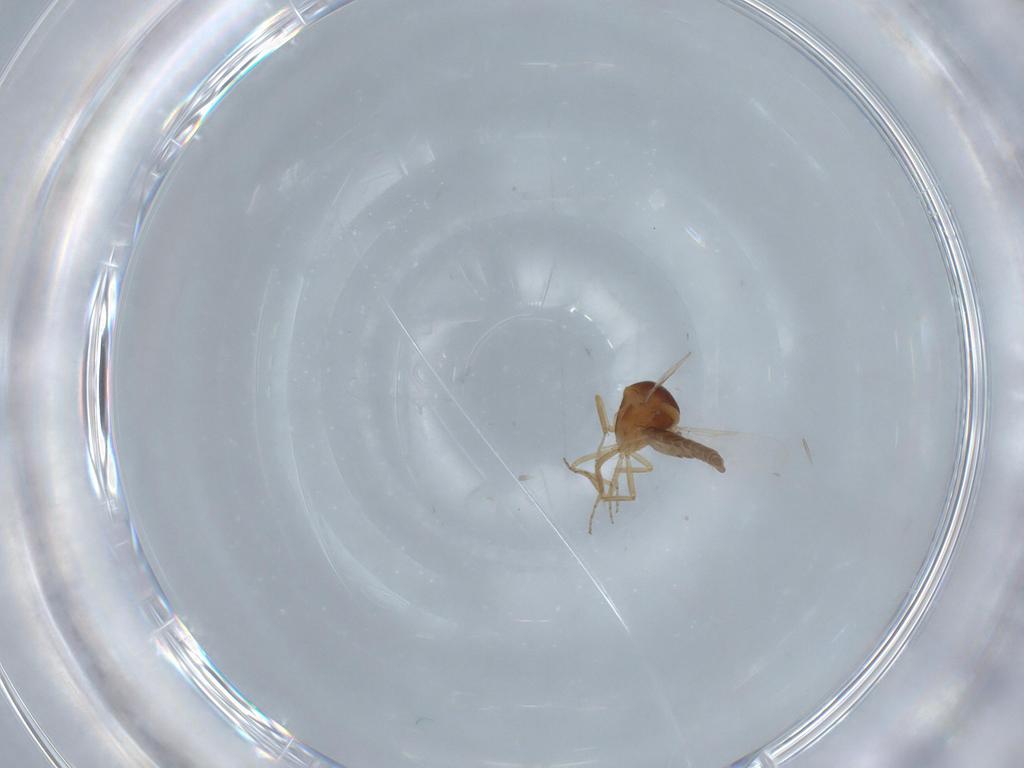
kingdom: Animalia
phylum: Arthropoda
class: Insecta
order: Diptera
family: Ceratopogonidae
